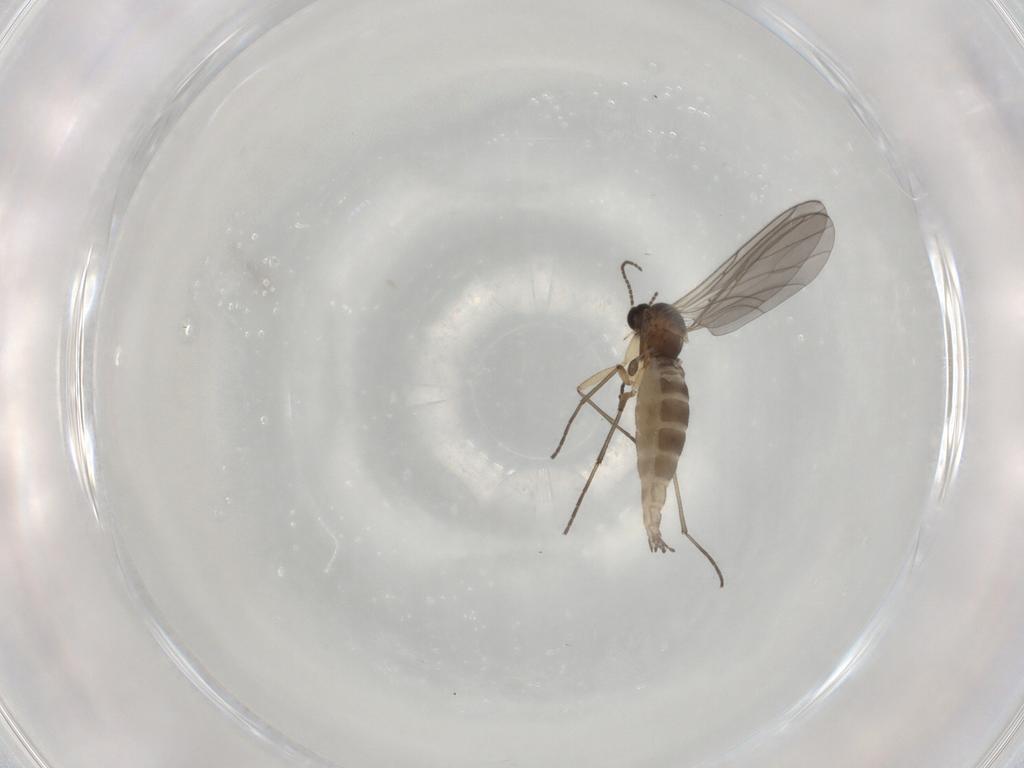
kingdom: Animalia
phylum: Arthropoda
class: Insecta
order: Diptera
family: Sciaridae
